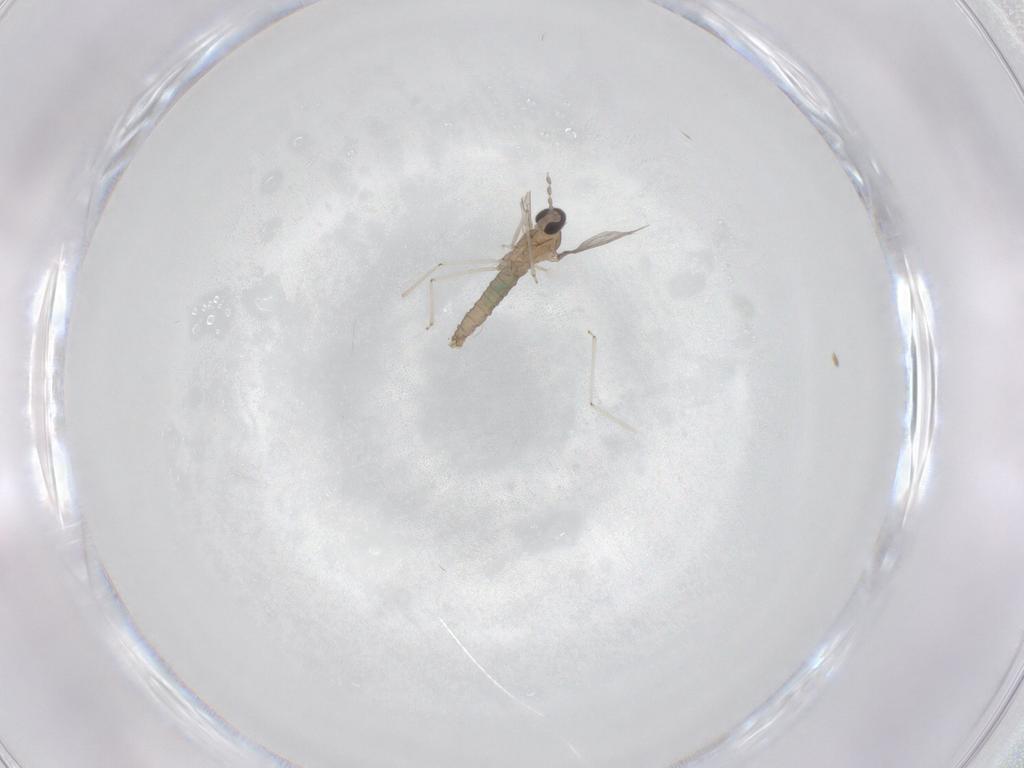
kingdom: Animalia
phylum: Arthropoda
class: Insecta
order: Diptera
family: Cecidomyiidae
